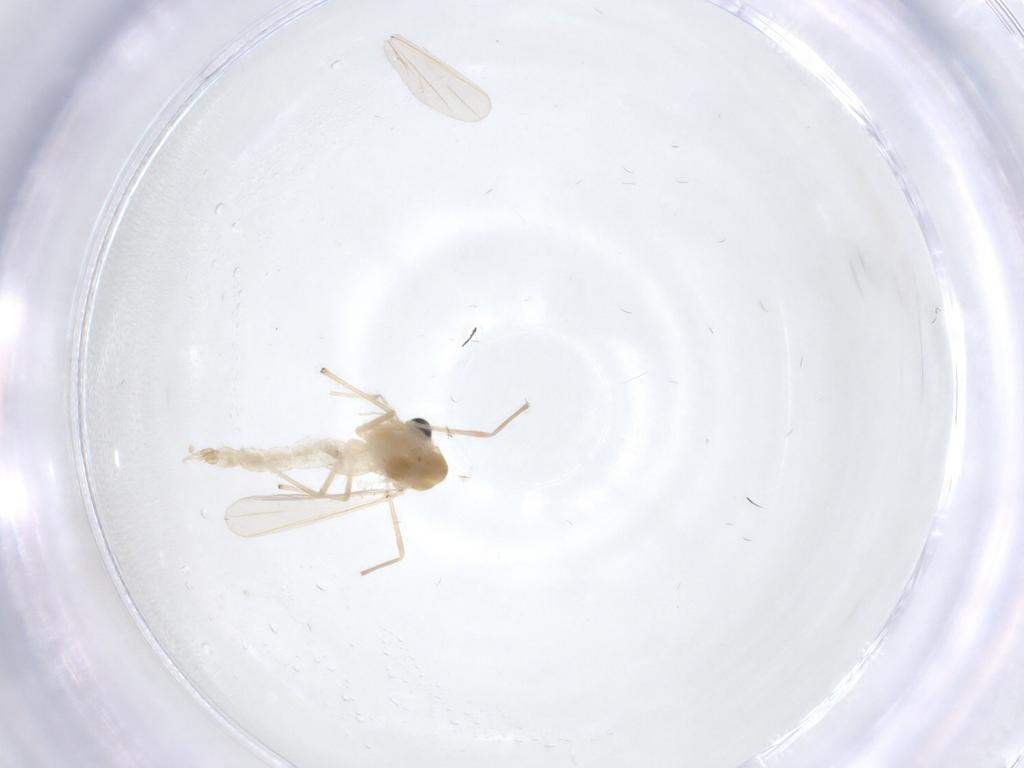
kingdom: Animalia
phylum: Arthropoda
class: Insecta
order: Diptera
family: Chironomidae
